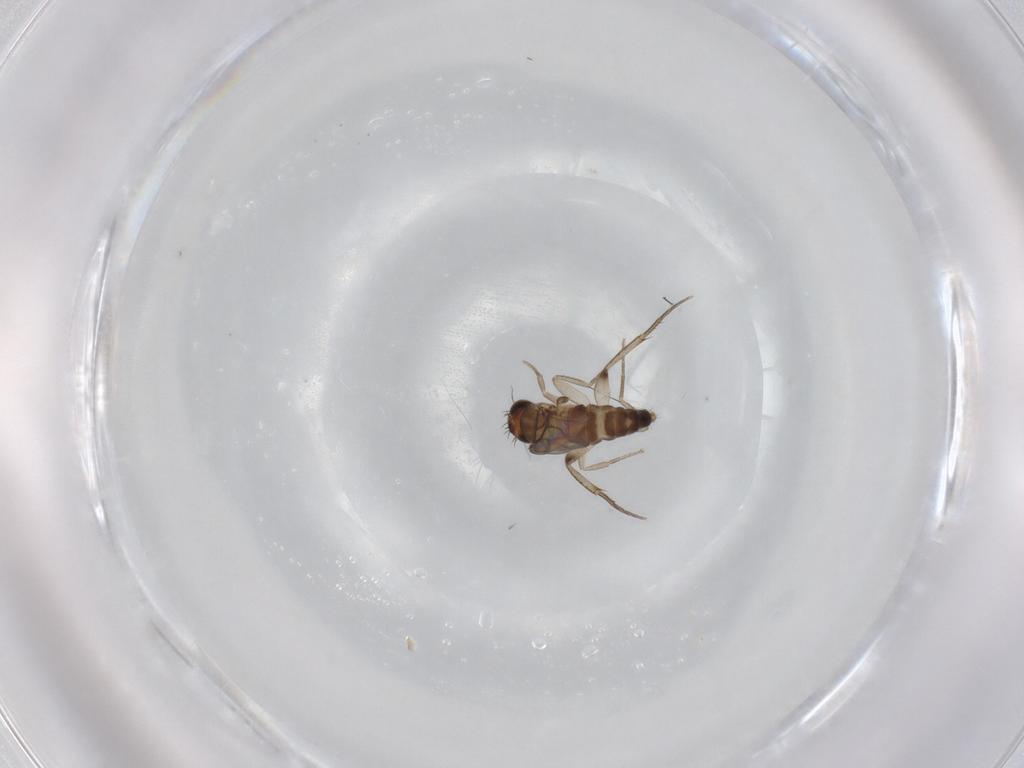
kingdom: Animalia
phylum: Arthropoda
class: Insecta
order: Diptera
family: Phoridae
